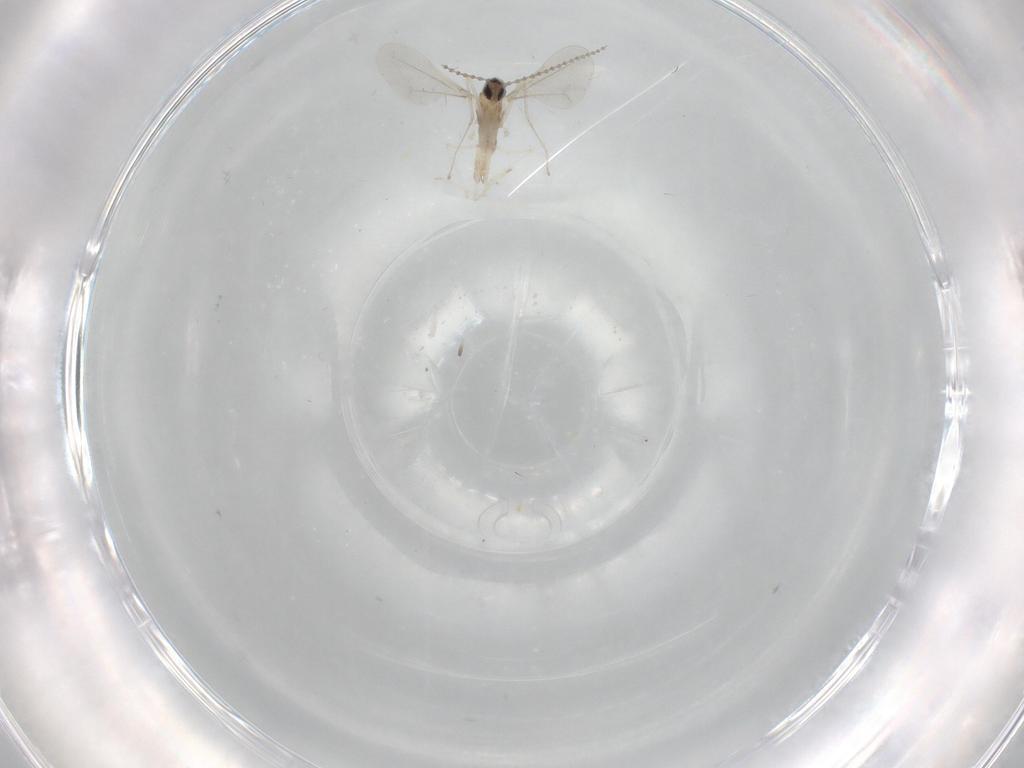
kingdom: Animalia
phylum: Arthropoda
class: Insecta
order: Diptera
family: Cecidomyiidae
